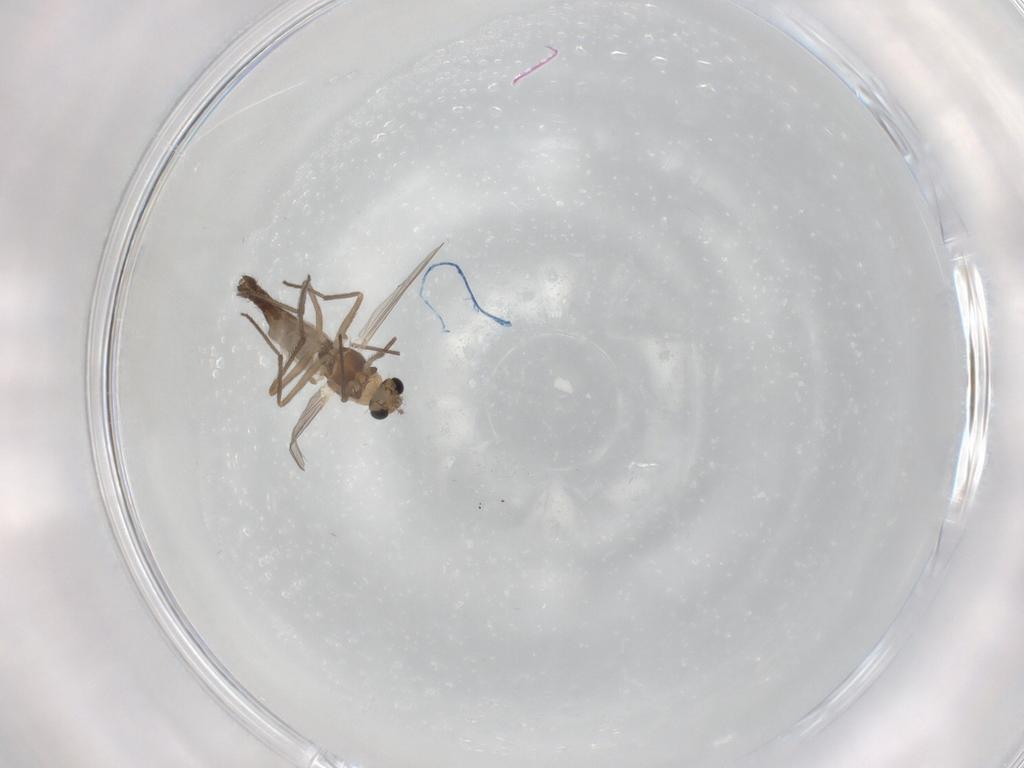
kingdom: Animalia
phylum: Arthropoda
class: Insecta
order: Diptera
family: Chironomidae
